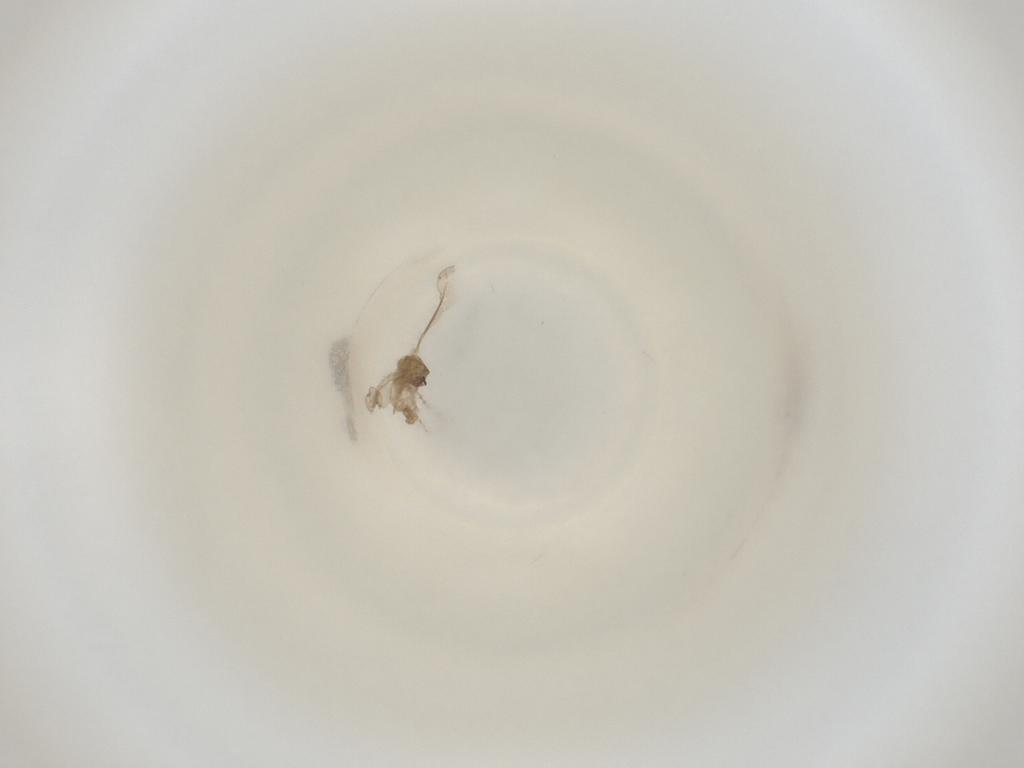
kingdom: Animalia
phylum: Arthropoda
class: Insecta
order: Diptera
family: Cecidomyiidae
